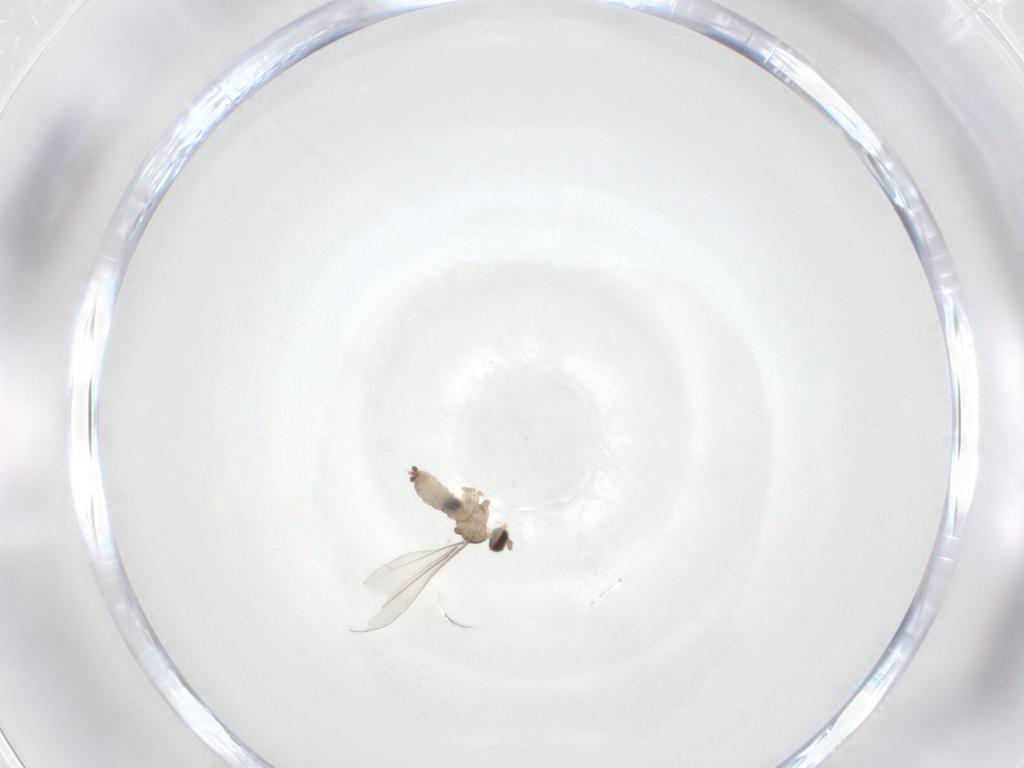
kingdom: Animalia
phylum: Arthropoda
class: Insecta
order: Diptera
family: Cecidomyiidae
